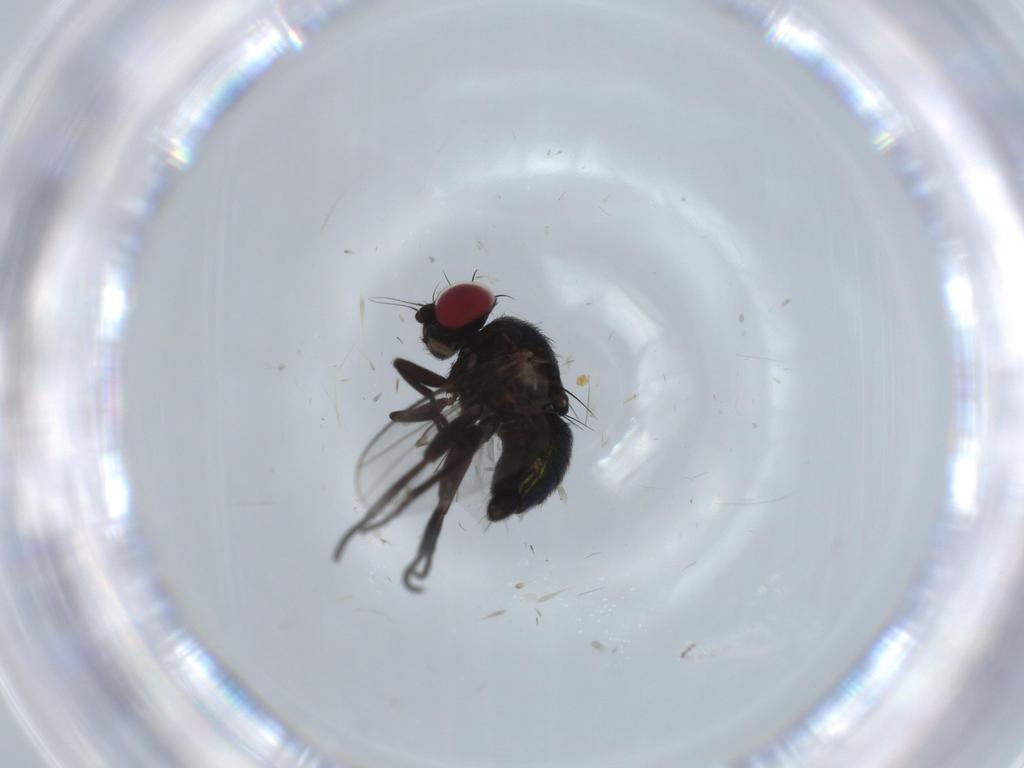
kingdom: Animalia
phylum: Arthropoda
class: Insecta
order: Diptera
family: Agromyzidae
